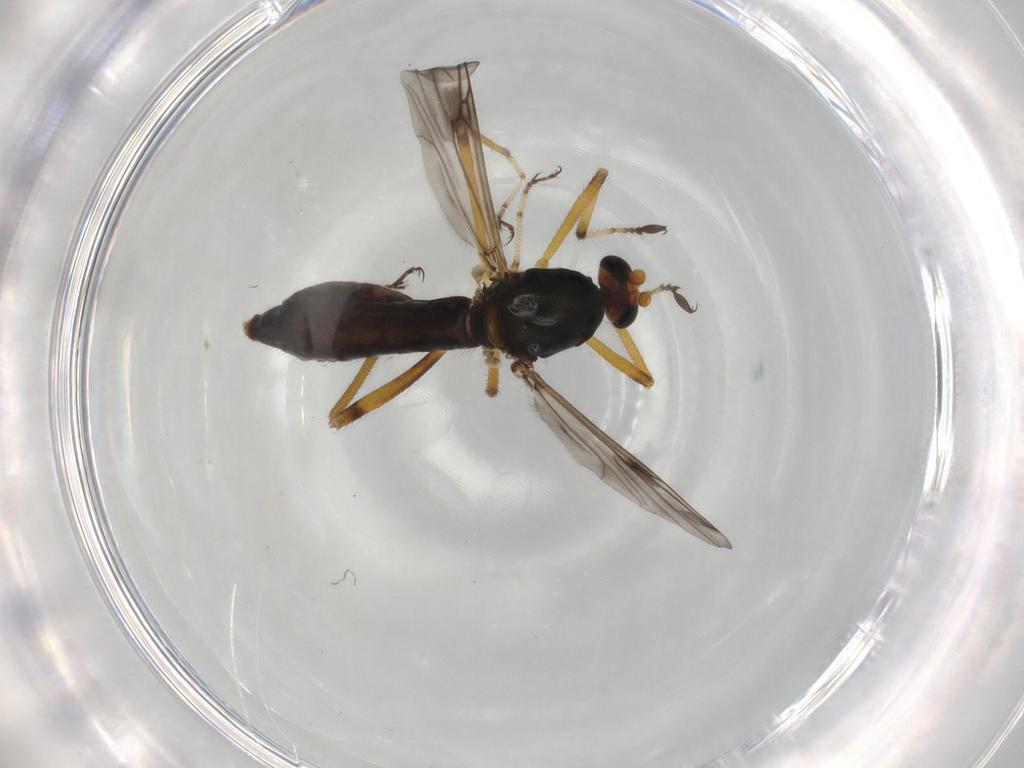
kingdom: Animalia
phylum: Arthropoda
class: Insecta
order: Diptera
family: Ceratopogonidae
